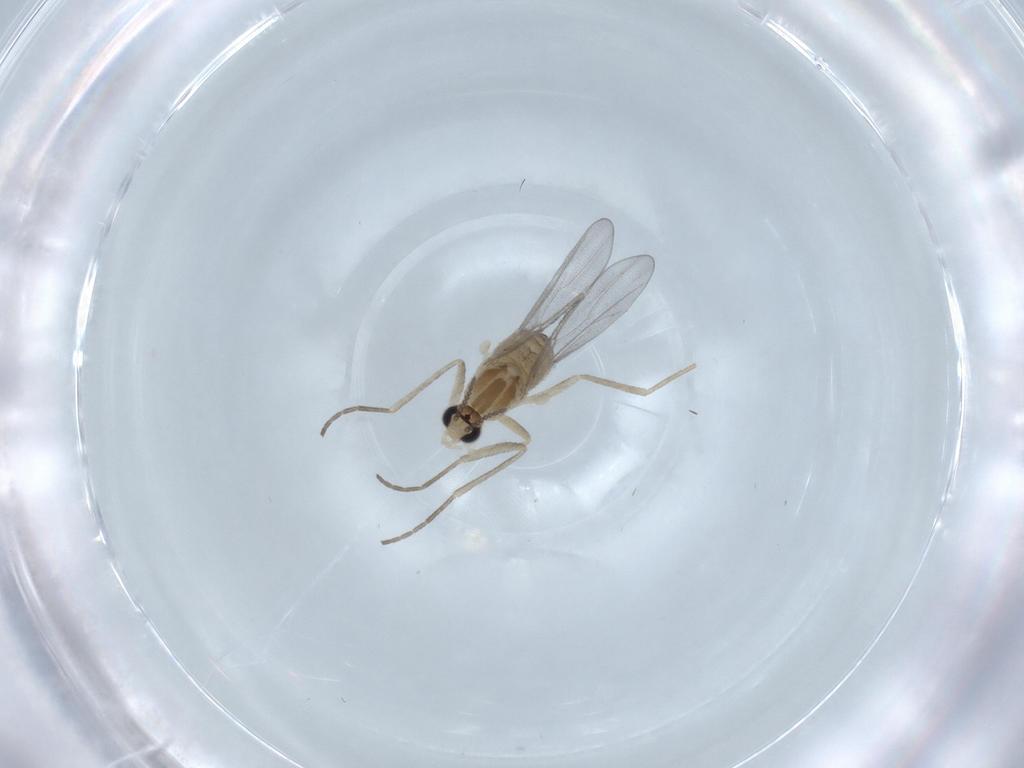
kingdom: Animalia
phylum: Arthropoda
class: Insecta
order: Diptera
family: Cecidomyiidae
